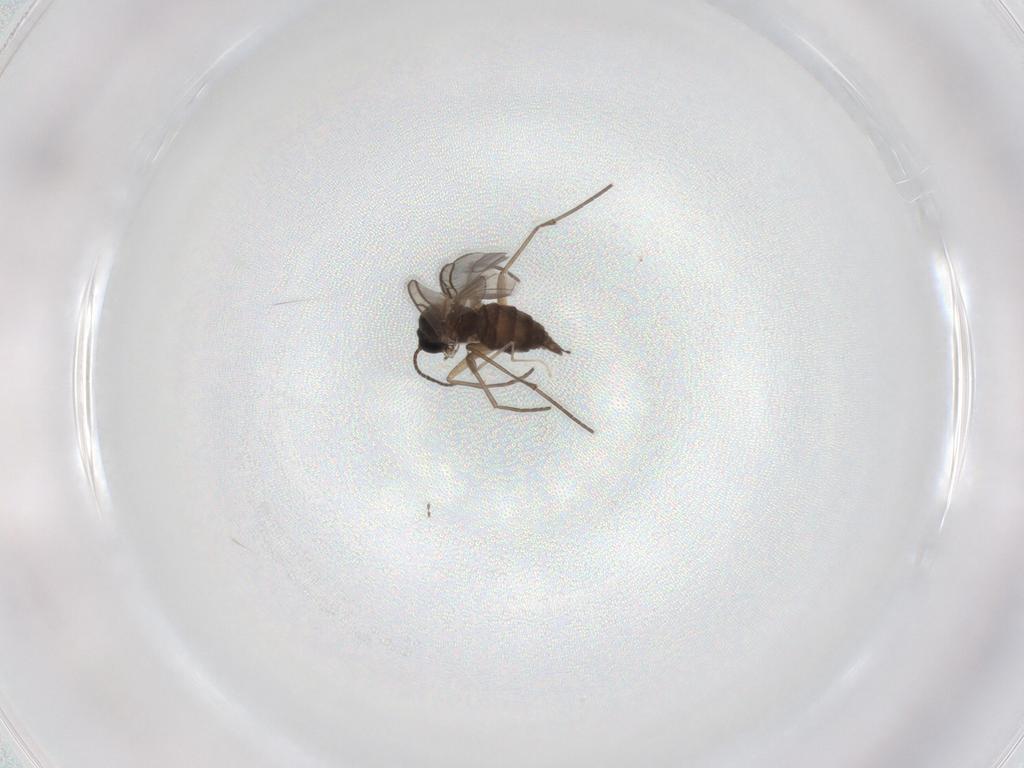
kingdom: Animalia
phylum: Arthropoda
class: Insecta
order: Diptera
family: Sciaridae
